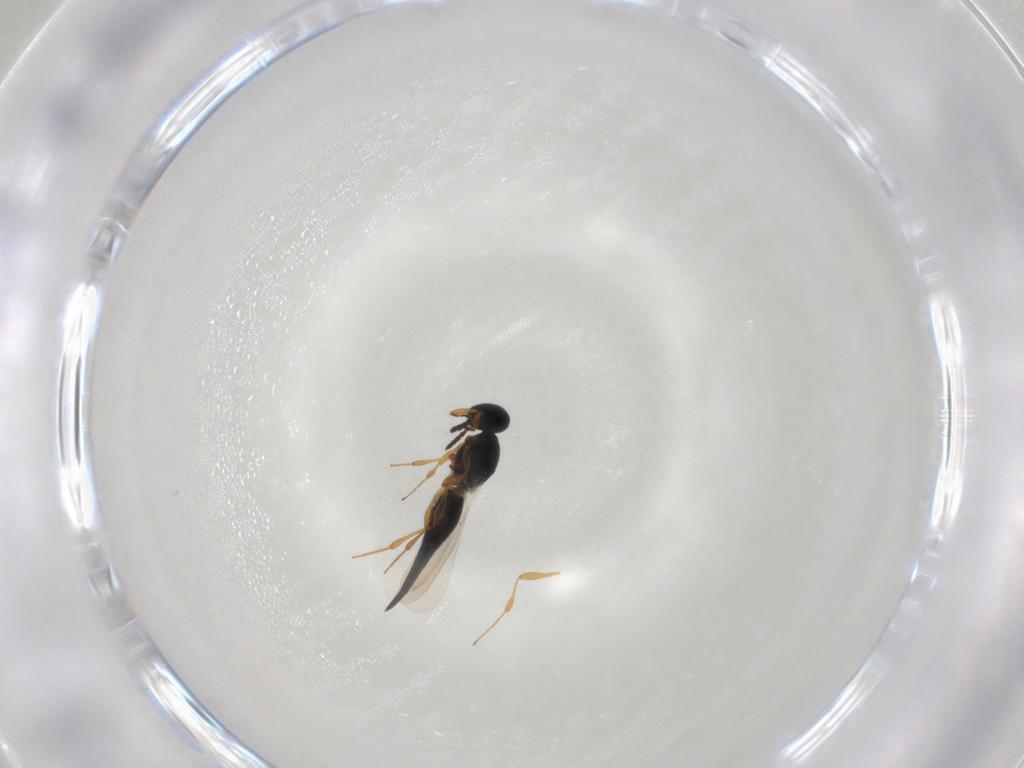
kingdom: Animalia
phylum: Arthropoda
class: Insecta
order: Hymenoptera
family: Platygastridae
